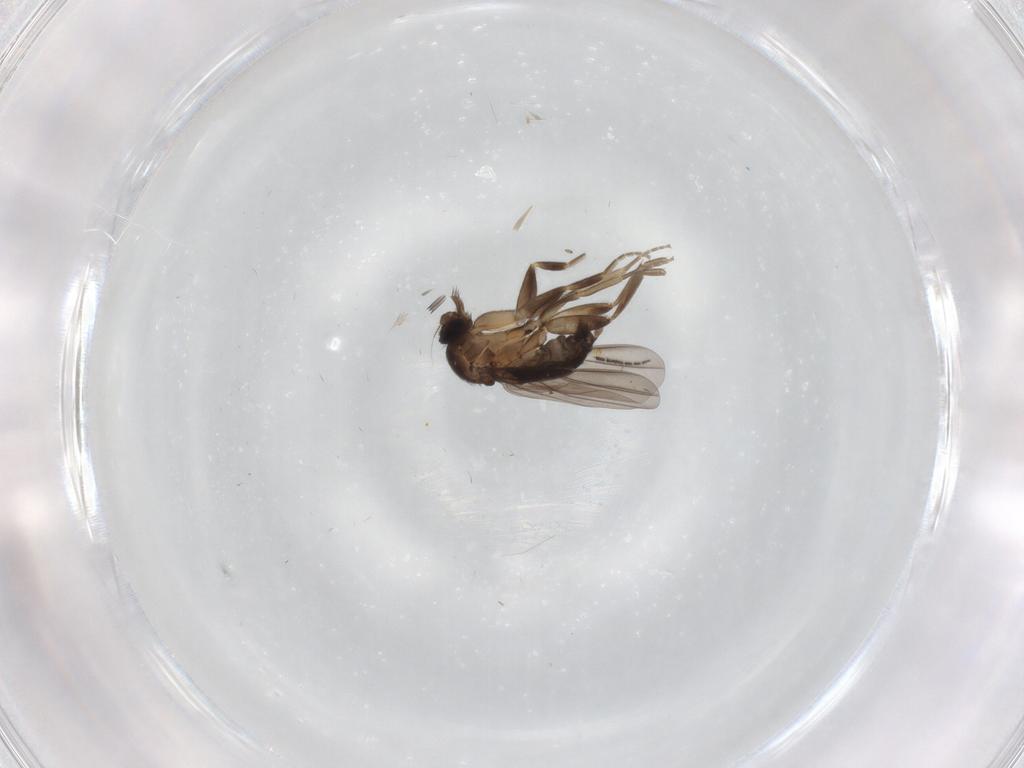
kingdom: Animalia
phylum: Arthropoda
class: Insecta
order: Diptera
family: Sciaridae
